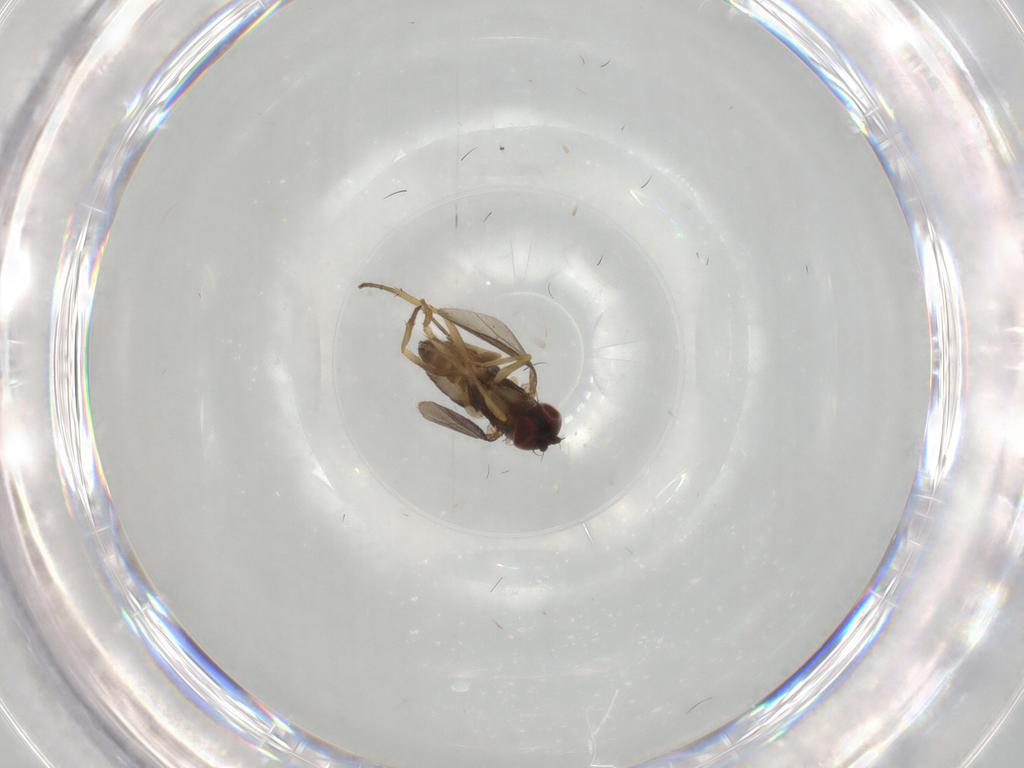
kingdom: Animalia
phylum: Arthropoda
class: Insecta
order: Diptera
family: Dolichopodidae
